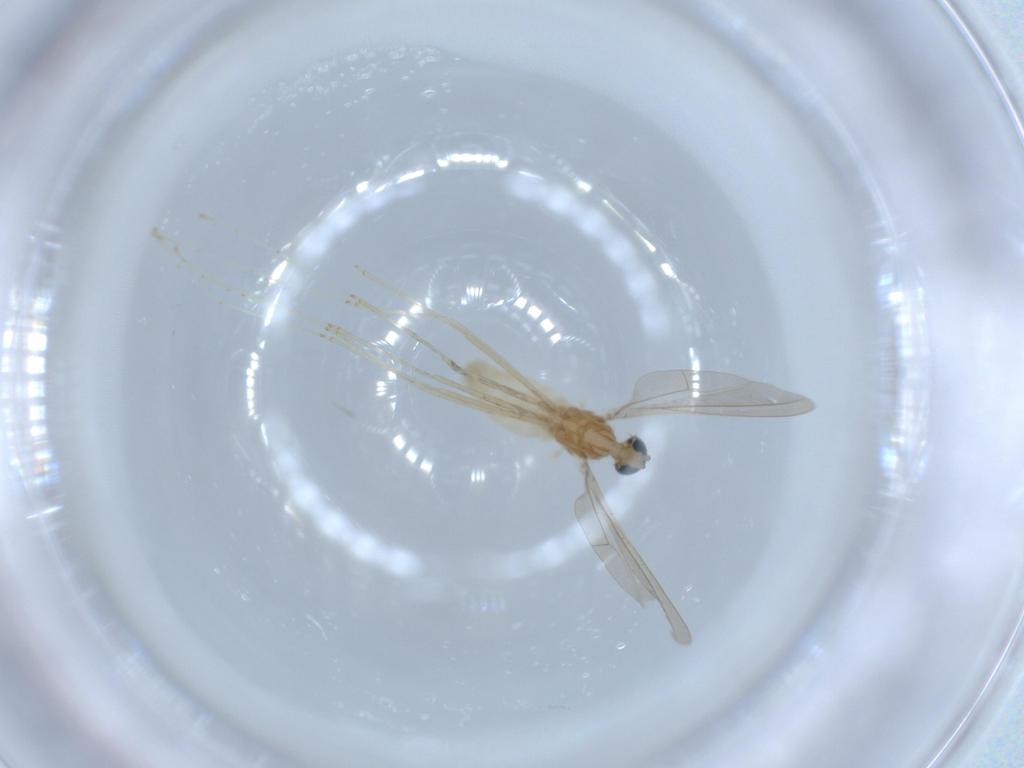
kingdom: Animalia
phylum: Arthropoda
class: Insecta
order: Diptera
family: Cecidomyiidae
